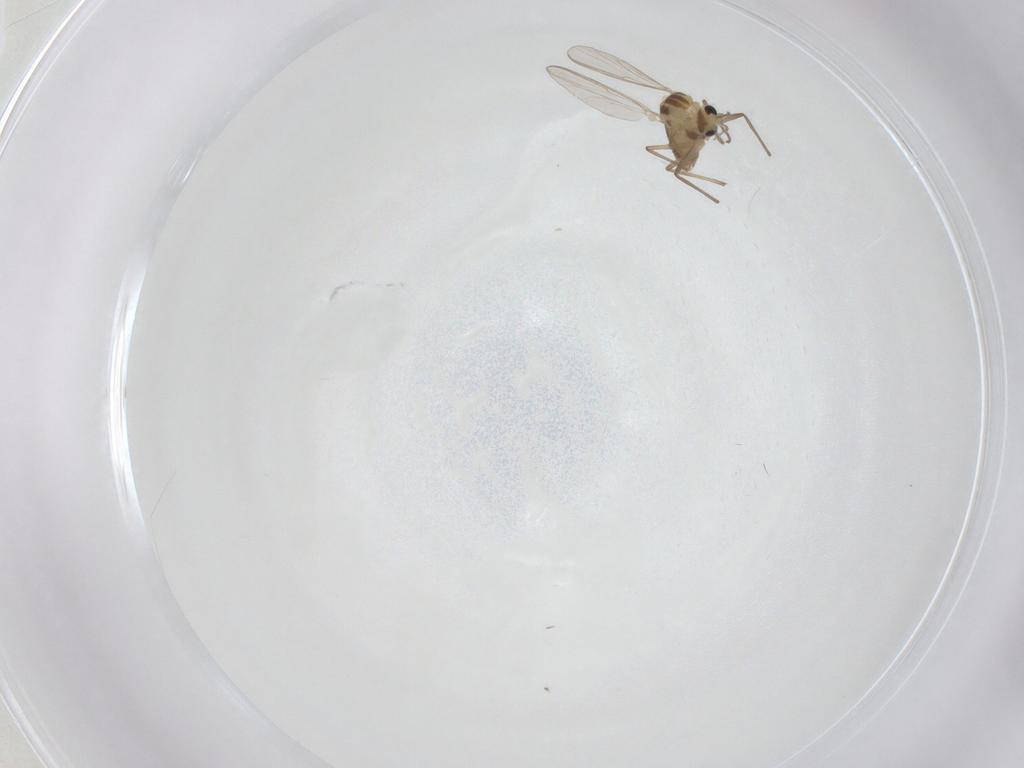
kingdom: Animalia
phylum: Arthropoda
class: Insecta
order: Diptera
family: Chironomidae
